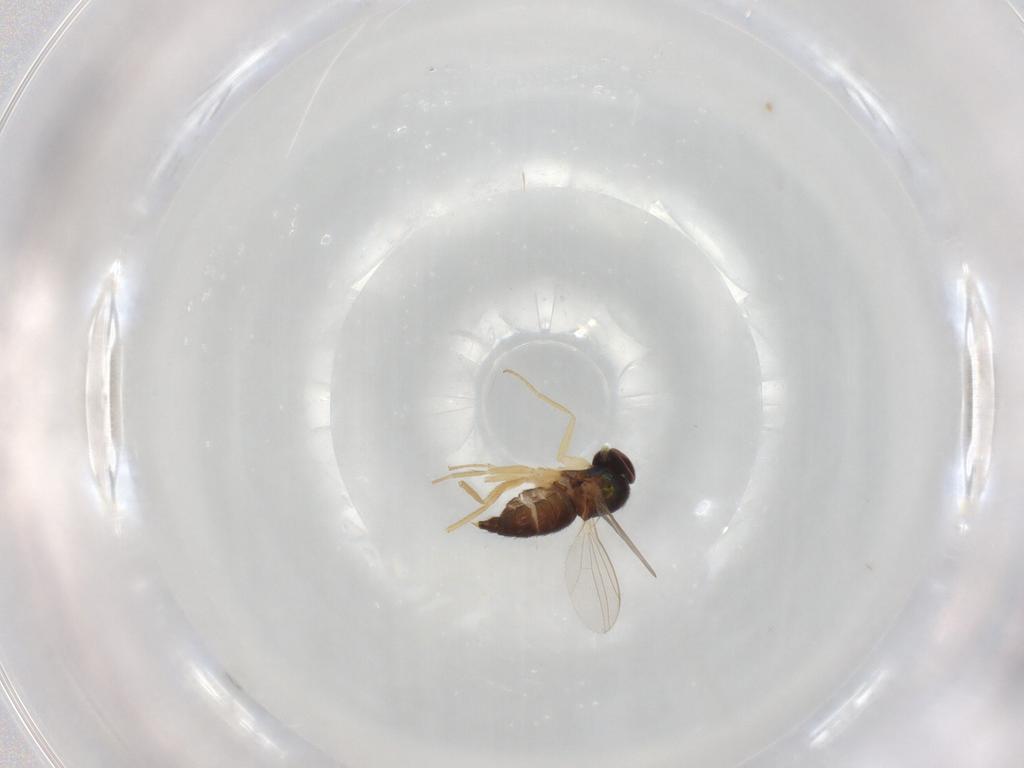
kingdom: Animalia
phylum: Arthropoda
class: Insecta
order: Diptera
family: Dolichopodidae
